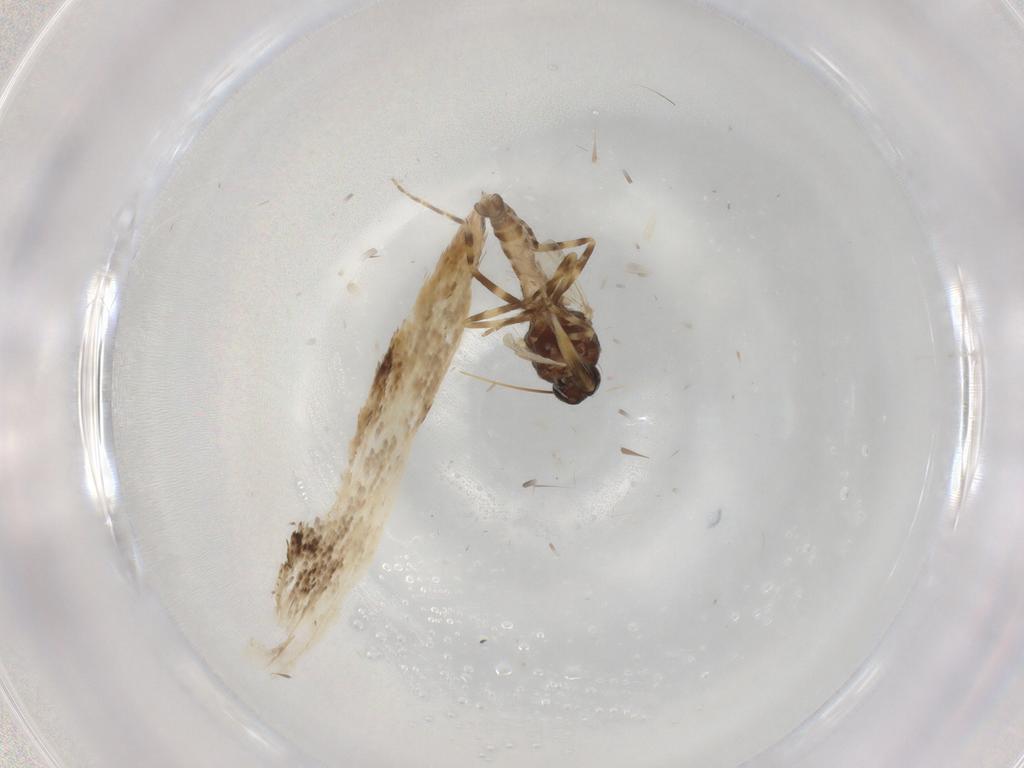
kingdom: Animalia
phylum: Arthropoda
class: Insecta
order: Diptera
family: Ceratopogonidae
